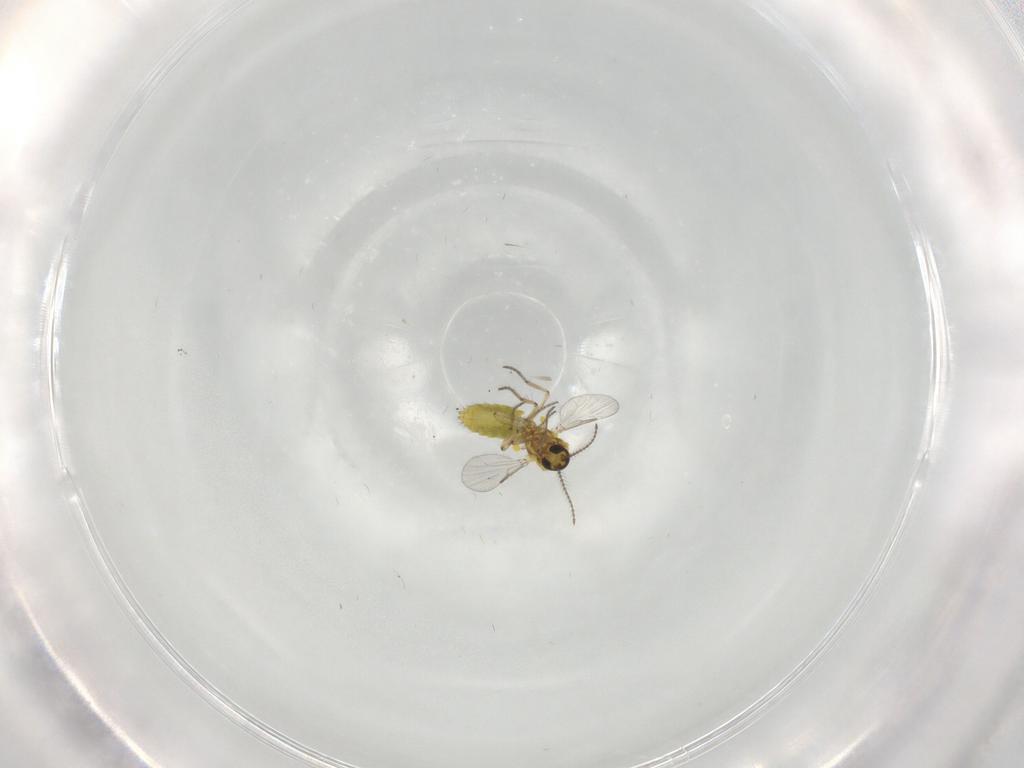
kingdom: Animalia
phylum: Arthropoda
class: Insecta
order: Diptera
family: Ceratopogonidae
